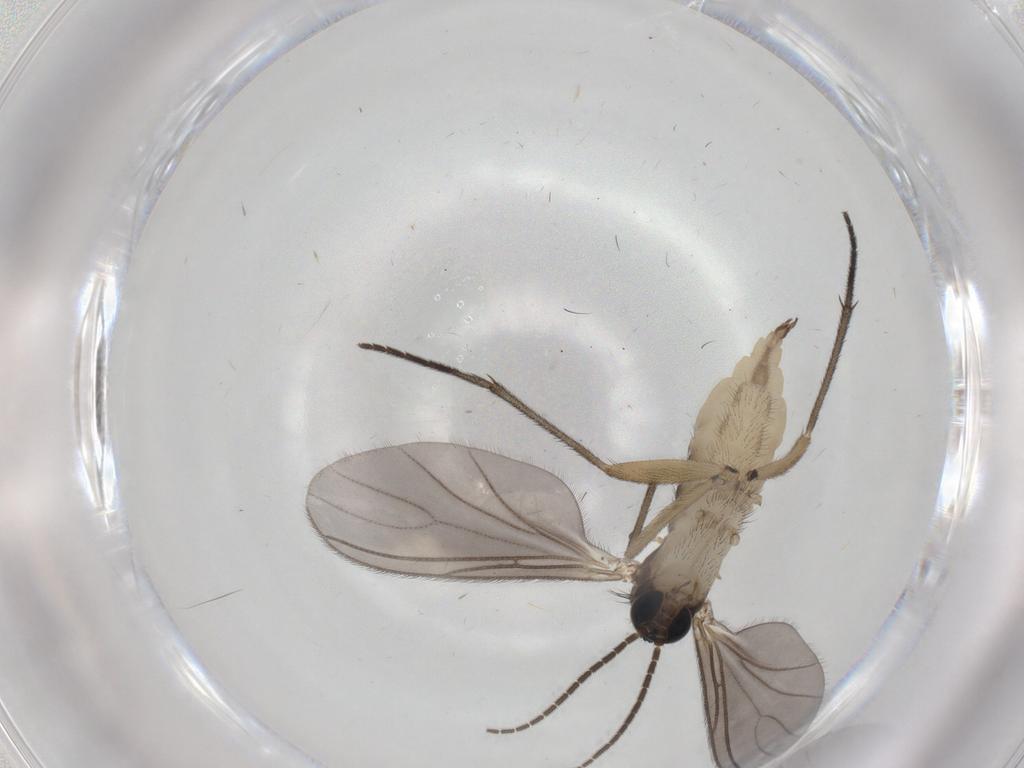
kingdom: Animalia
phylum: Arthropoda
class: Insecta
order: Diptera
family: Sciaridae
